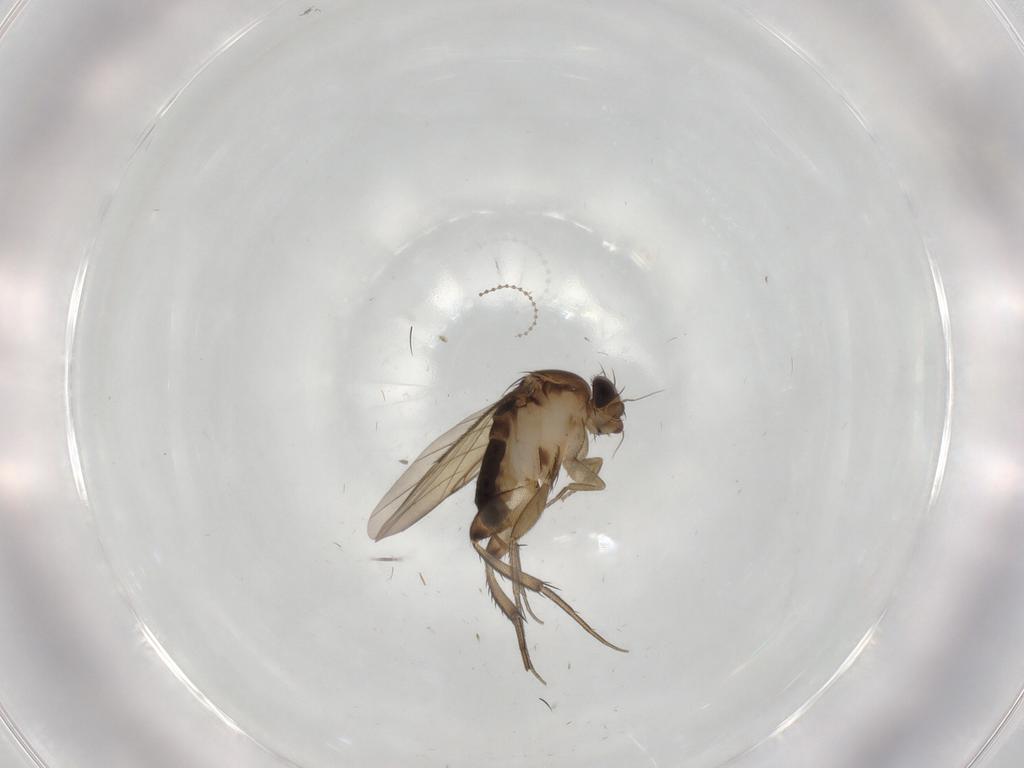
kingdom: Animalia
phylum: Arthropoda
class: Insecta
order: Diptera
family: Phoridae
